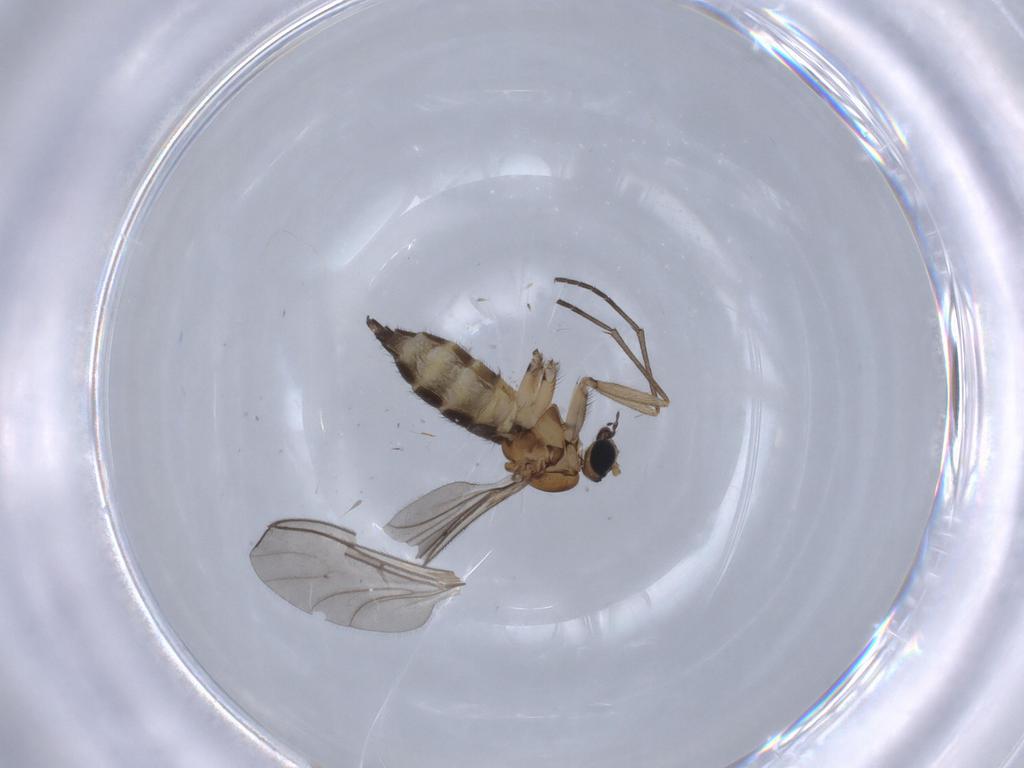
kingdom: Animalia
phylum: Arthropoda
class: Insecta
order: Diptera
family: Sciaridae
